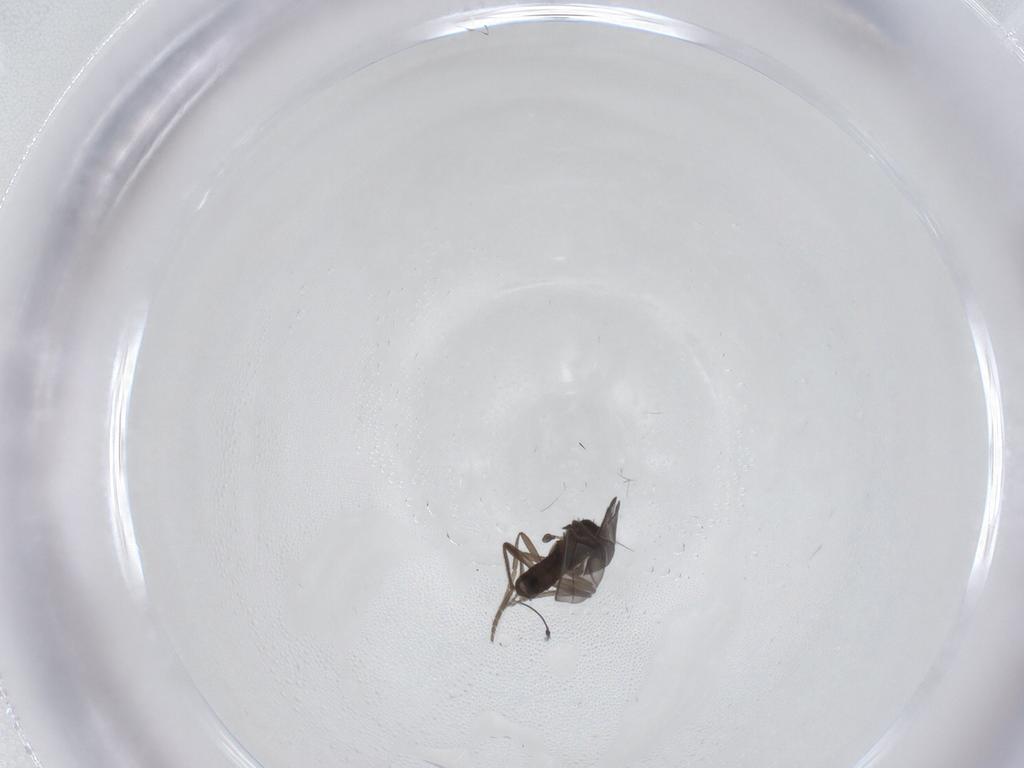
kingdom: Animalia
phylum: Arthropoda
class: Insecta
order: Diptera
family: Phoridae
